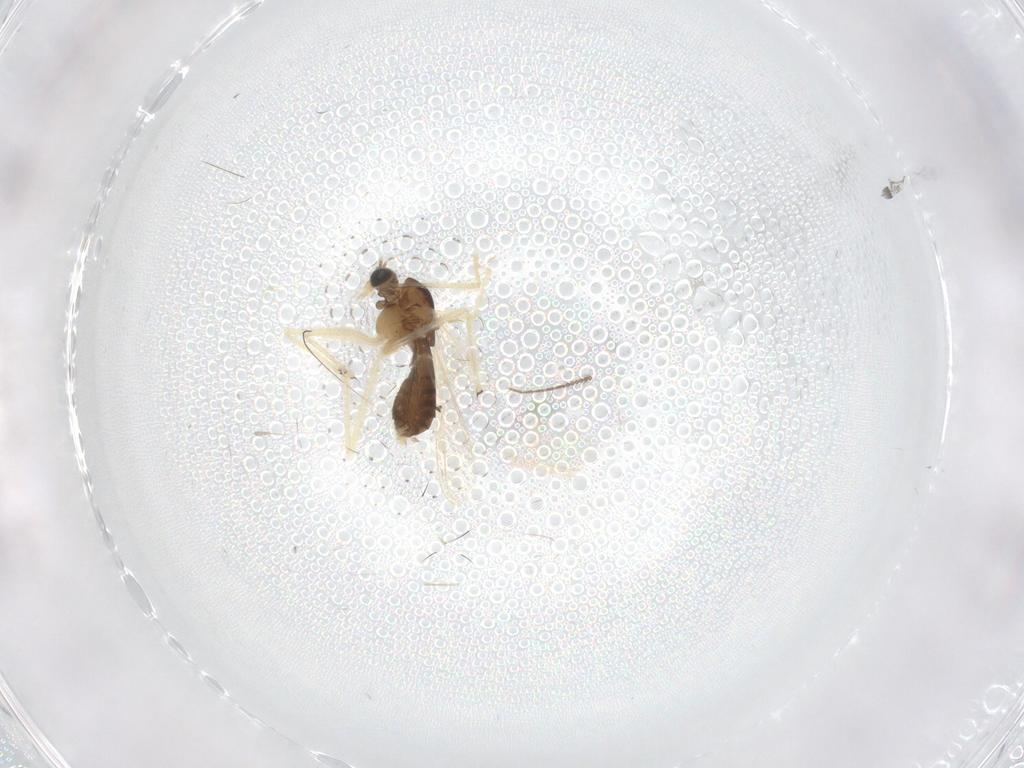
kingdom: Animalia
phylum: Arthropoda
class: Insecta
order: Diptera
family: Chironomidae
